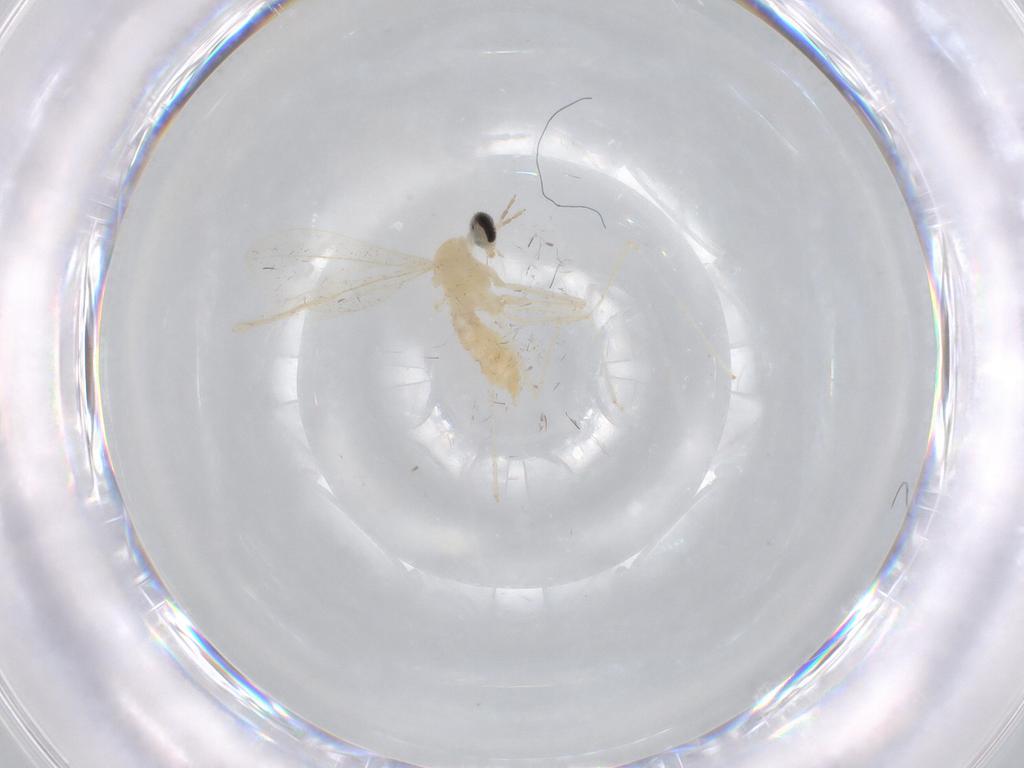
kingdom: Animalia
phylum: Arthropoda
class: Insecta
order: Diptera
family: Cecidomyiidae
